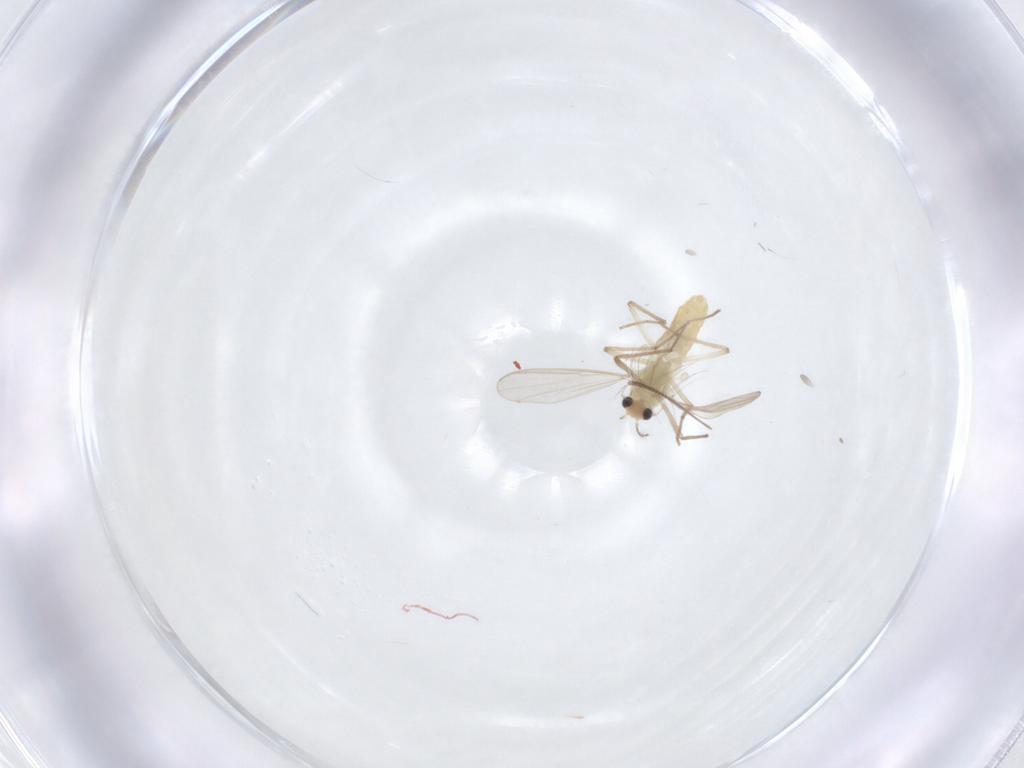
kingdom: Animalia
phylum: Arthropoda
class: Insecta
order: Diptera
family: Chironomidae
